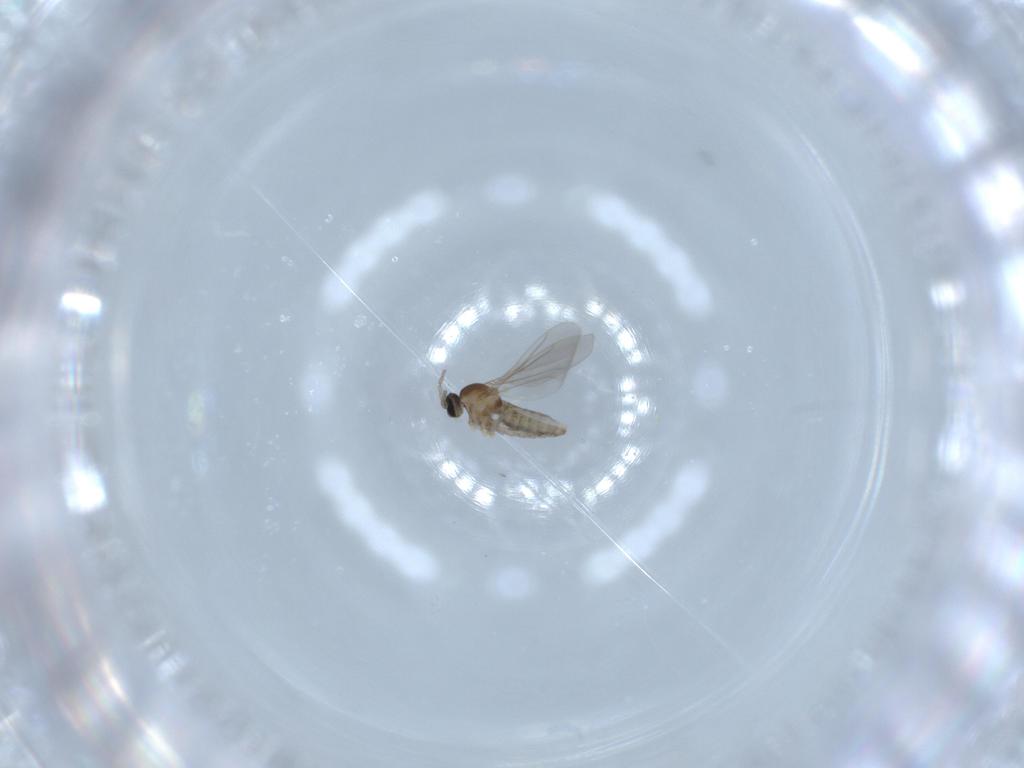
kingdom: Animalia
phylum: Arthropoda
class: Insecta
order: Diptera
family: Cecidomyiidae
